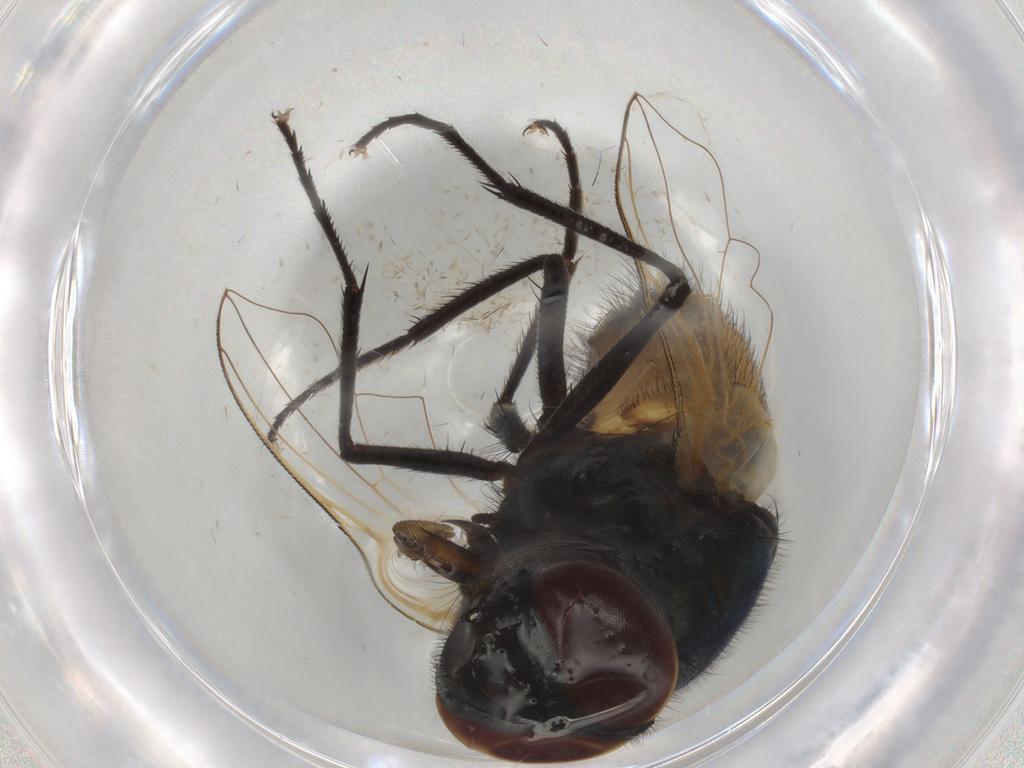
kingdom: Animalia
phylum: Arthropoda
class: Insecta
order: Diptera
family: Muscidae
